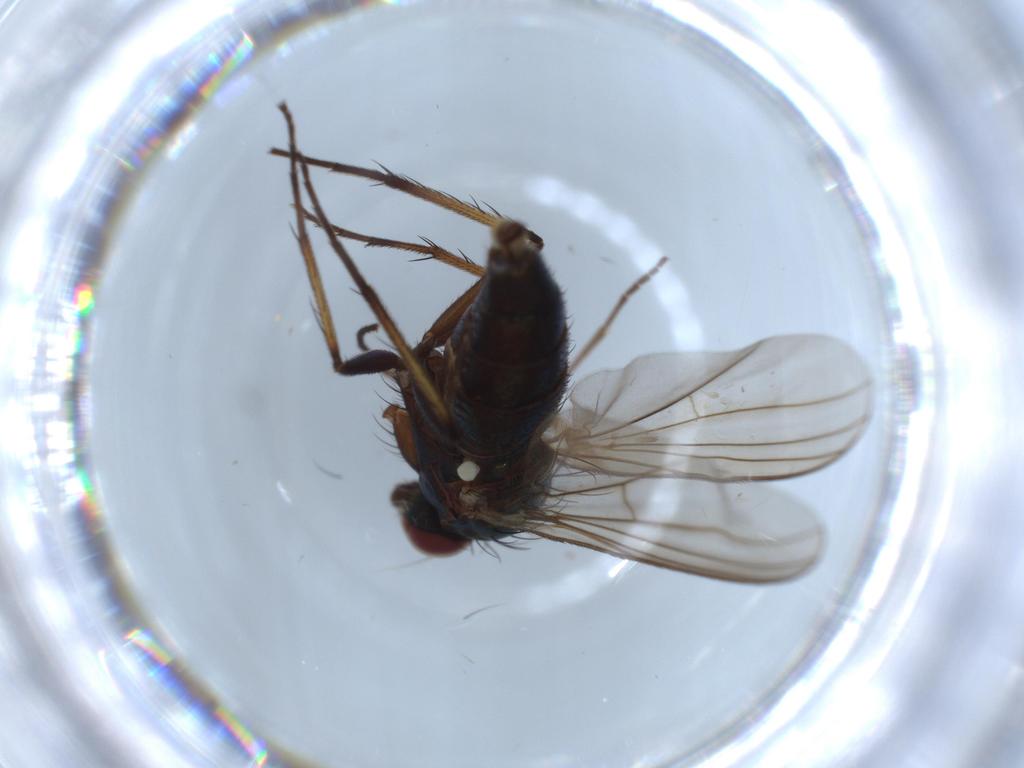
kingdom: Animalia
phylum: Arthropoda
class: Insecta
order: Diptera
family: Dolichopodidae
